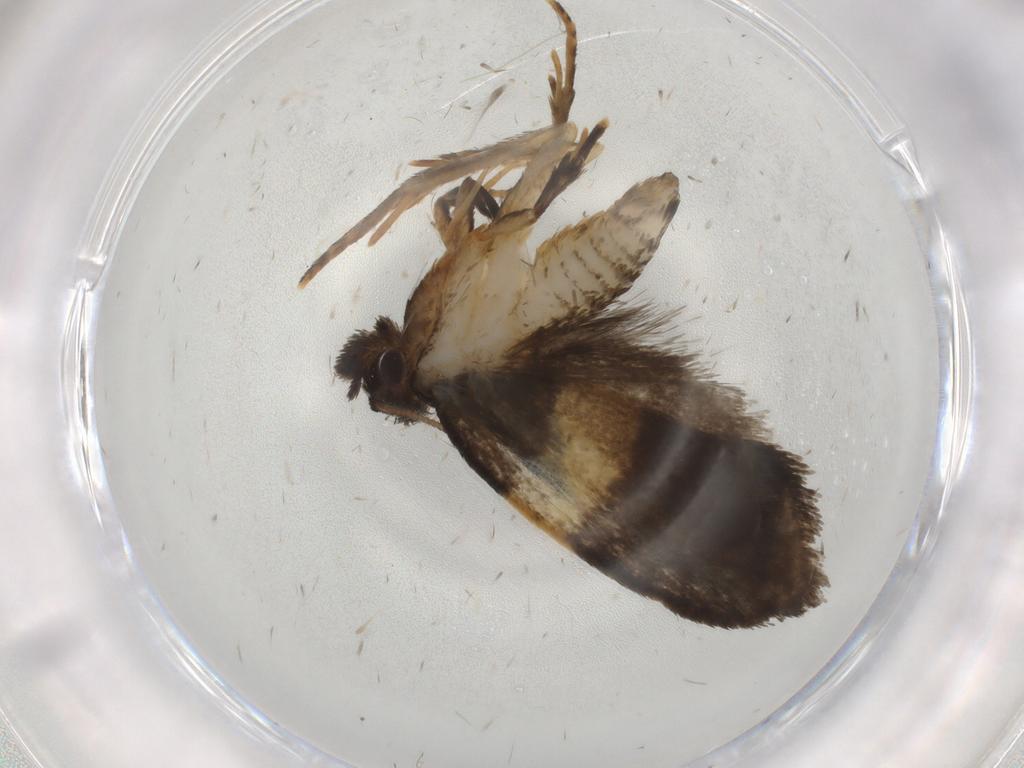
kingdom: Animalia
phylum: Arthropoda
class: Insecta
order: Lepidoptera
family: Psychidae
